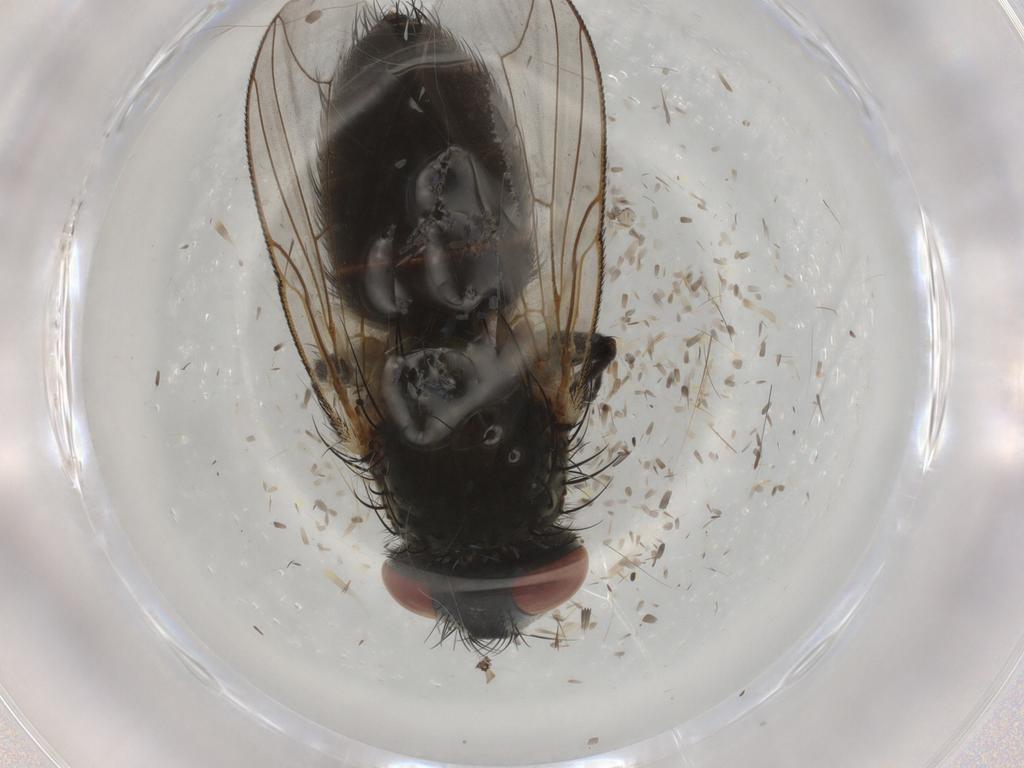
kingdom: Animalia
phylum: Arthropoda
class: Insecta
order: Diptera
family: Sarcophagidae
